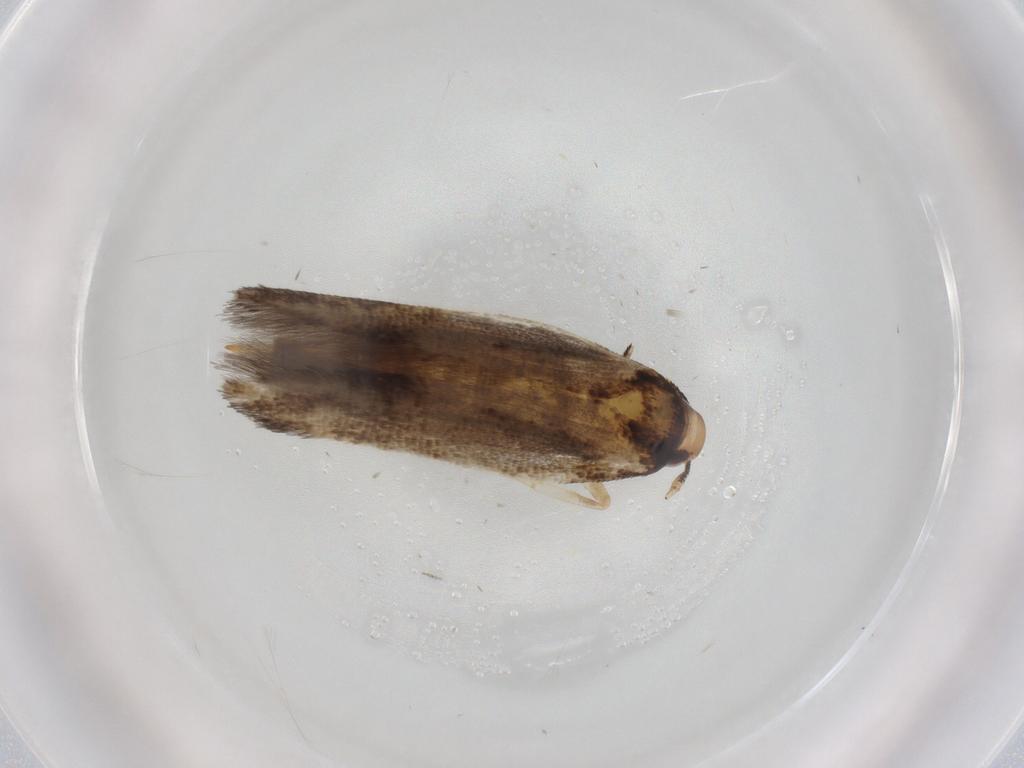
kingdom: Animalia
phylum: Arthropoda
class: Insecta
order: Lepidoptera
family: Cosmopterigidae
